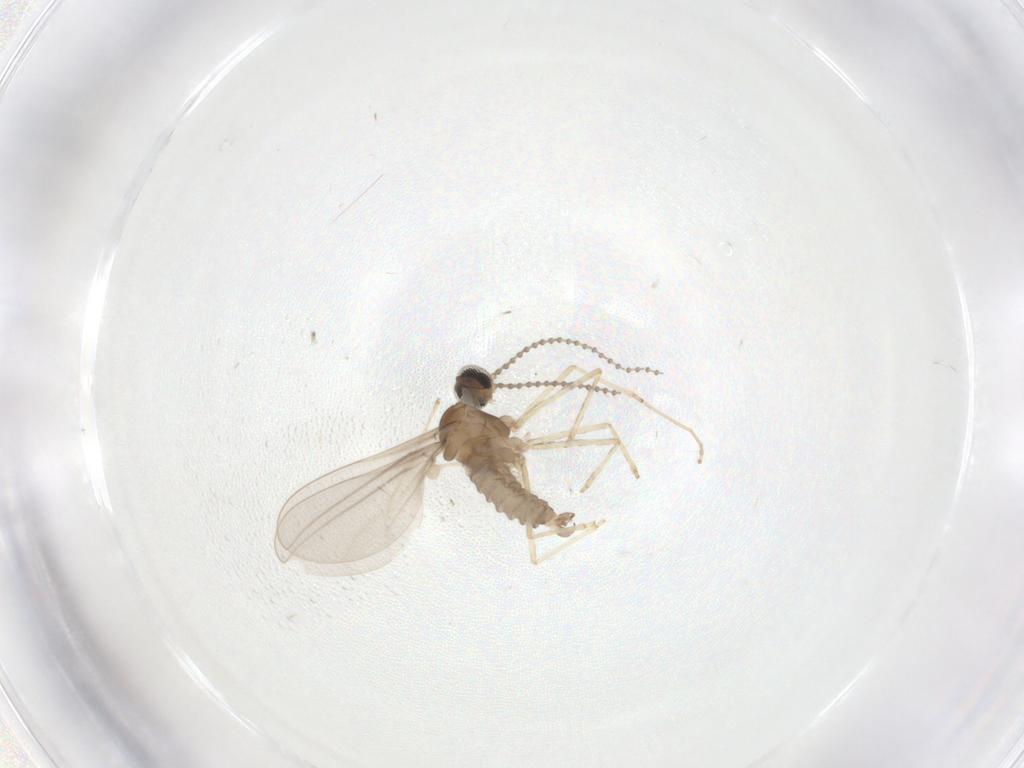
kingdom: Animalia
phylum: Arthropoda
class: Insecta
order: Diptera
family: Cecidomyiidae
